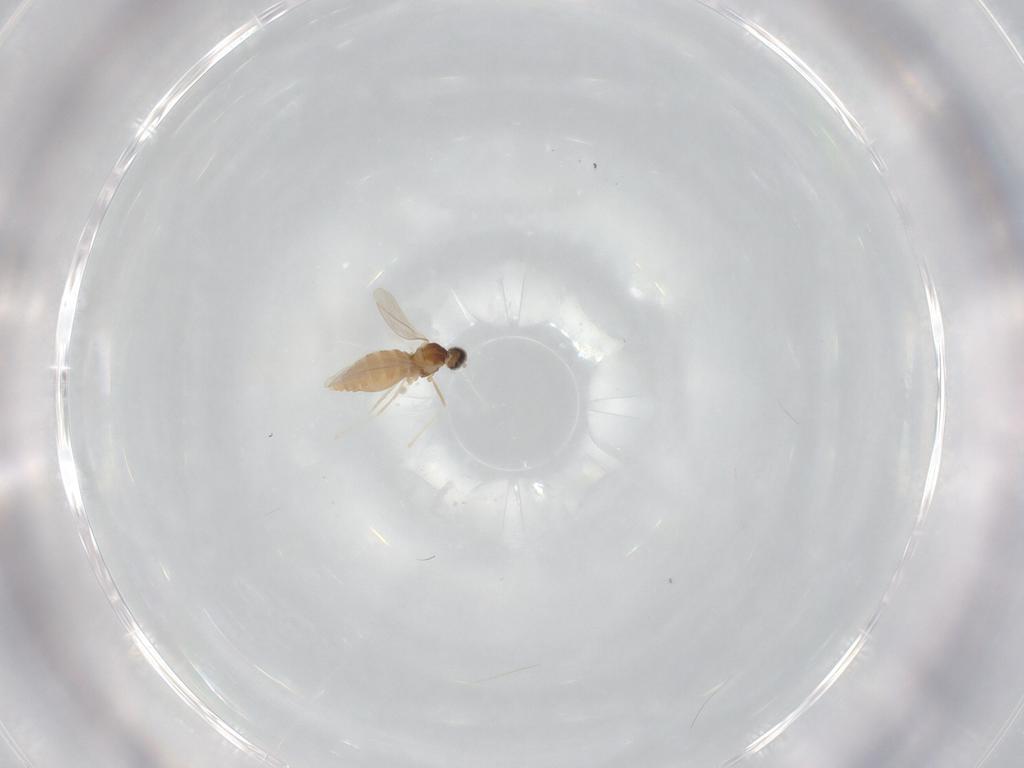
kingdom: Animalia
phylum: Arthropoda
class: Insecta
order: Diptera
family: Cecidomyiidae
